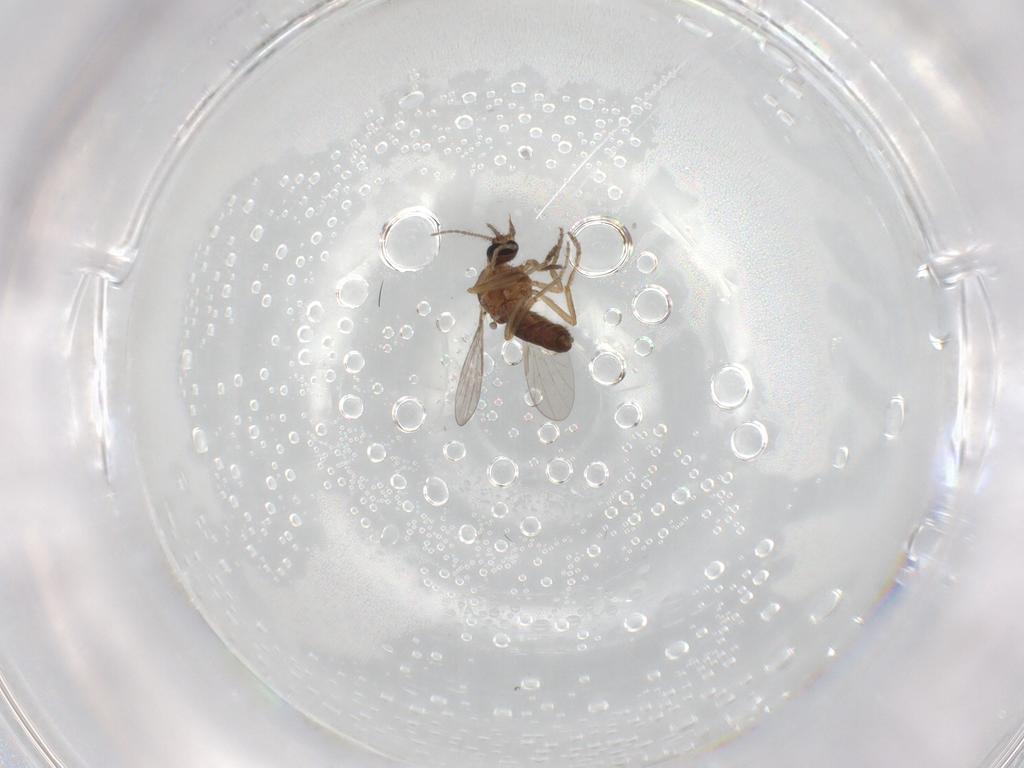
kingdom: Animalia
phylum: Arthropoda
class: Insecta
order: Diptera
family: Ceratopogonidae
